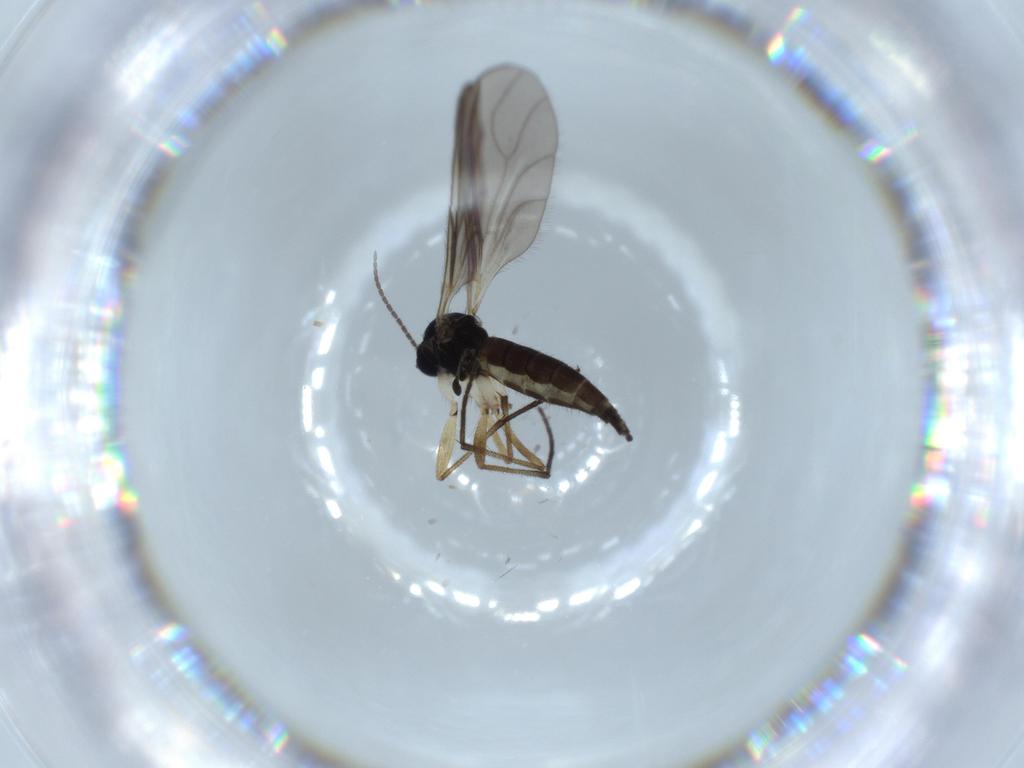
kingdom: Animalia
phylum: Arthropoda
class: Insecta
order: Diptera
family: Sciaridae
